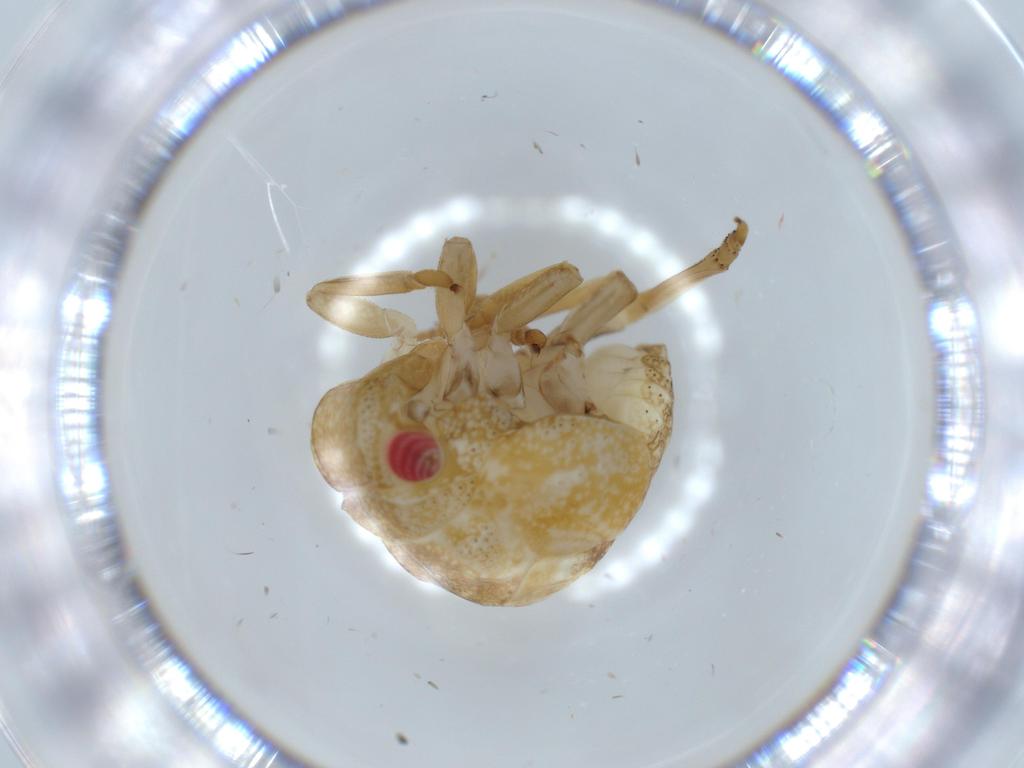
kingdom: Animalia
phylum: Arthropoda
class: Insecta
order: Hemiptera
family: Acanaloniidae
